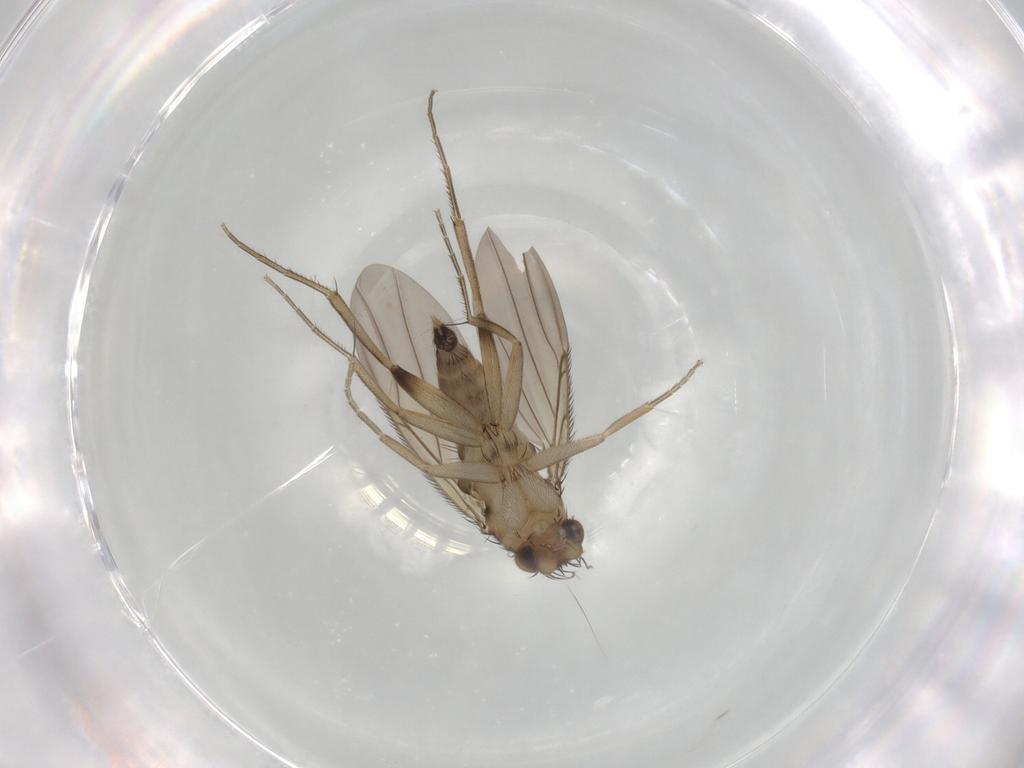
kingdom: Animalia
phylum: Arthropoda
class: Insecta
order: Diptera
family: Phoridae
